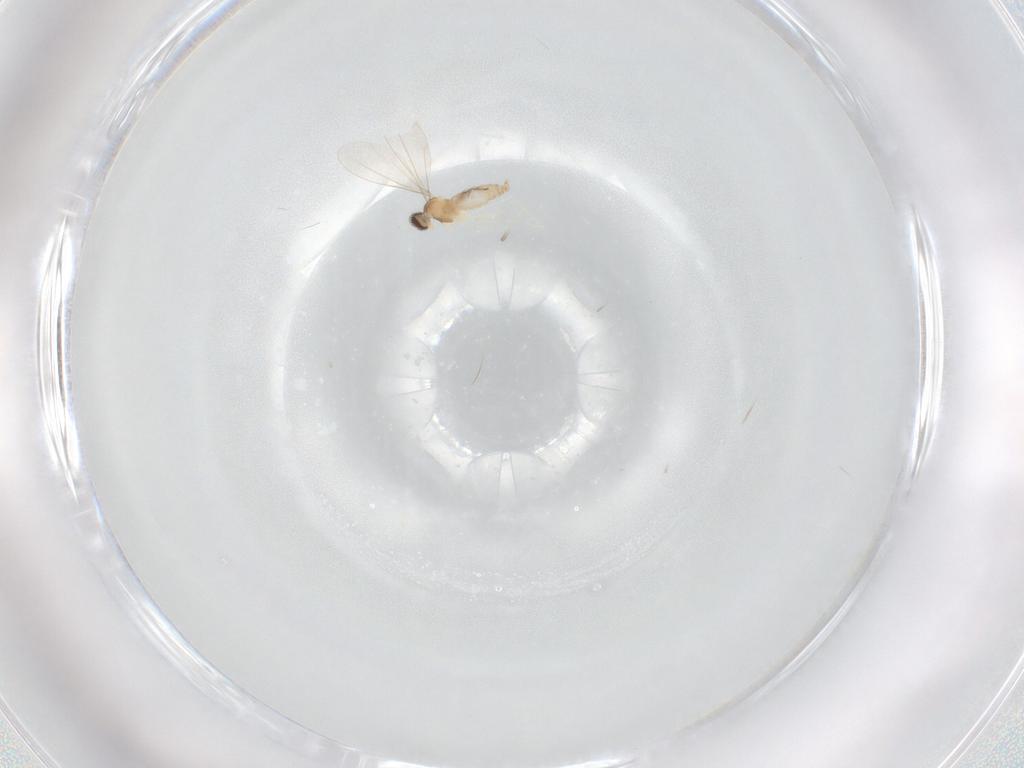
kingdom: Animalia
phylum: Arthropoda
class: Insecta
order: Diptera
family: Cecidomyiidae
